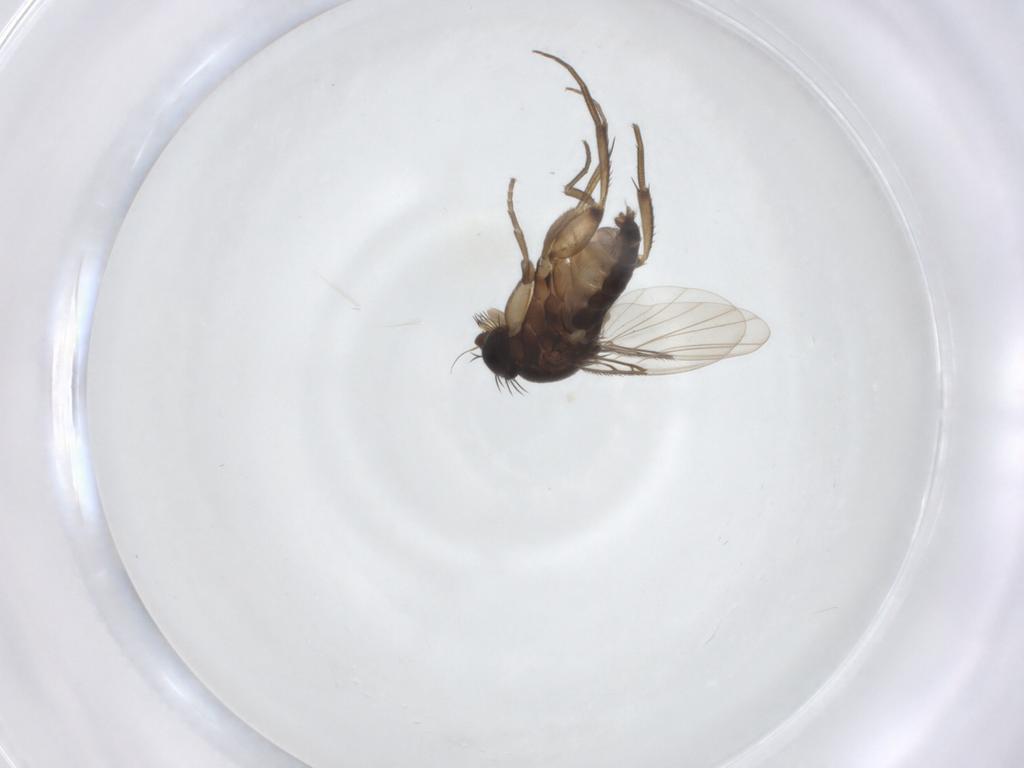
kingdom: Animalia
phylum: Arthropoda
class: Insecta
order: Diptera
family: Phoridae
